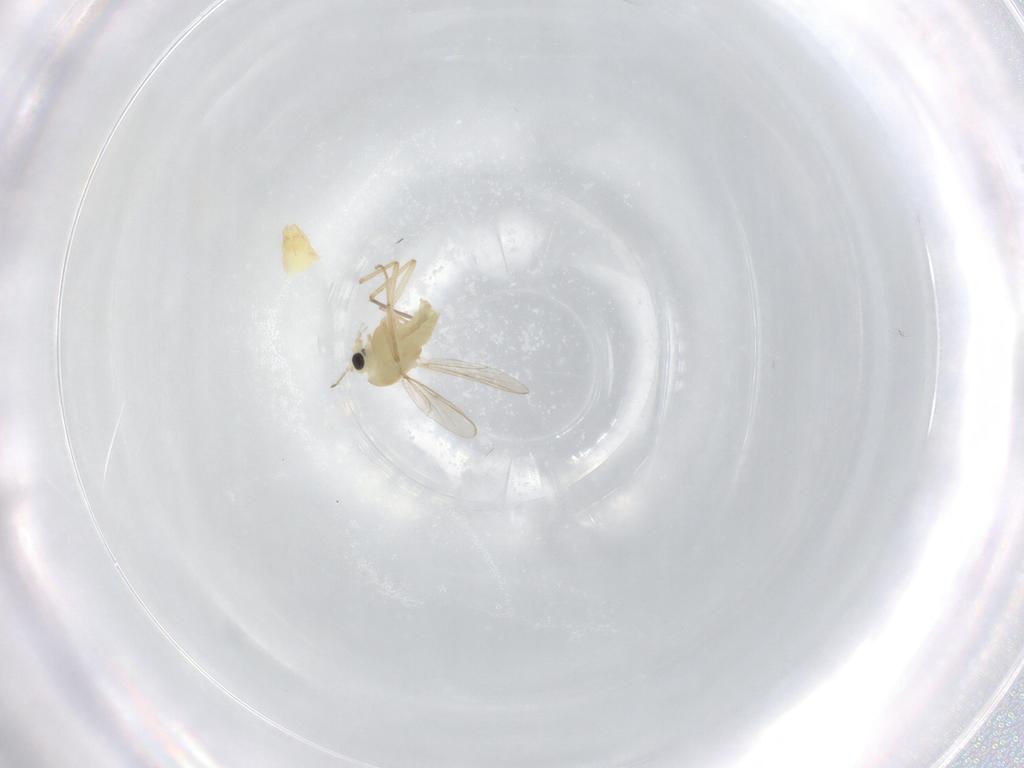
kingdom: Animalia
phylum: Arthropoda
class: Insecta
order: Diptera
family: Chironomidae
